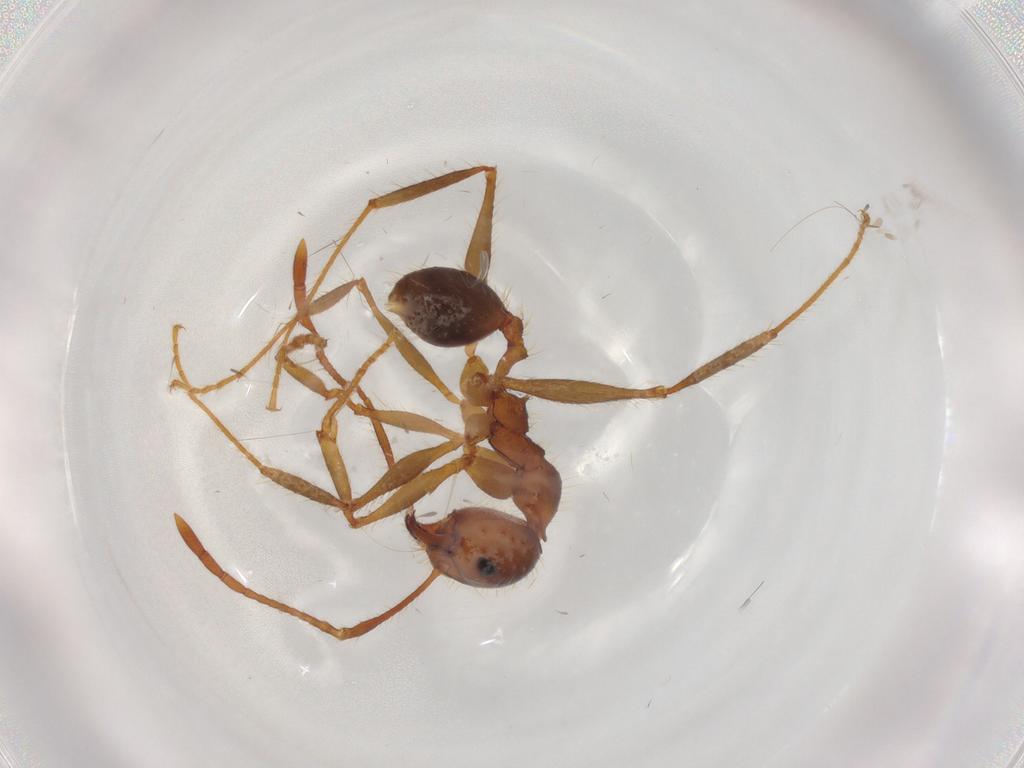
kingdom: Animalia
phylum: Arthropoda
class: Insecta
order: Hymenoptera
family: Formicidae
